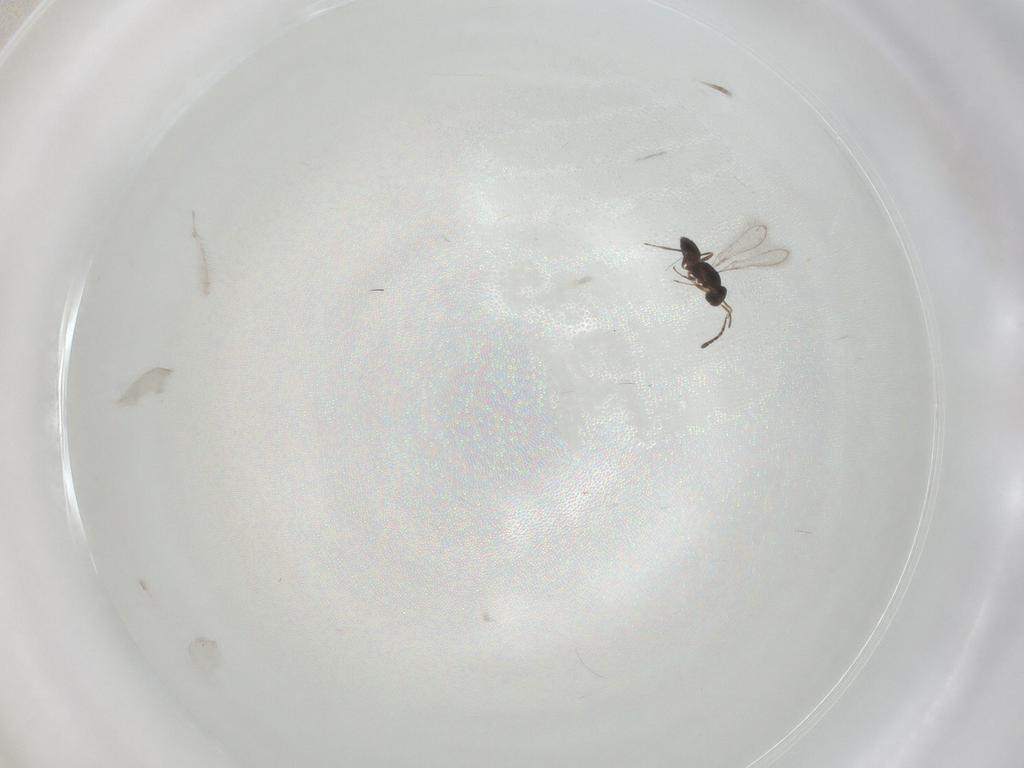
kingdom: Animalia
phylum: Arthropoda
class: Insecta
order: Hymenoptera
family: Mymaridae
